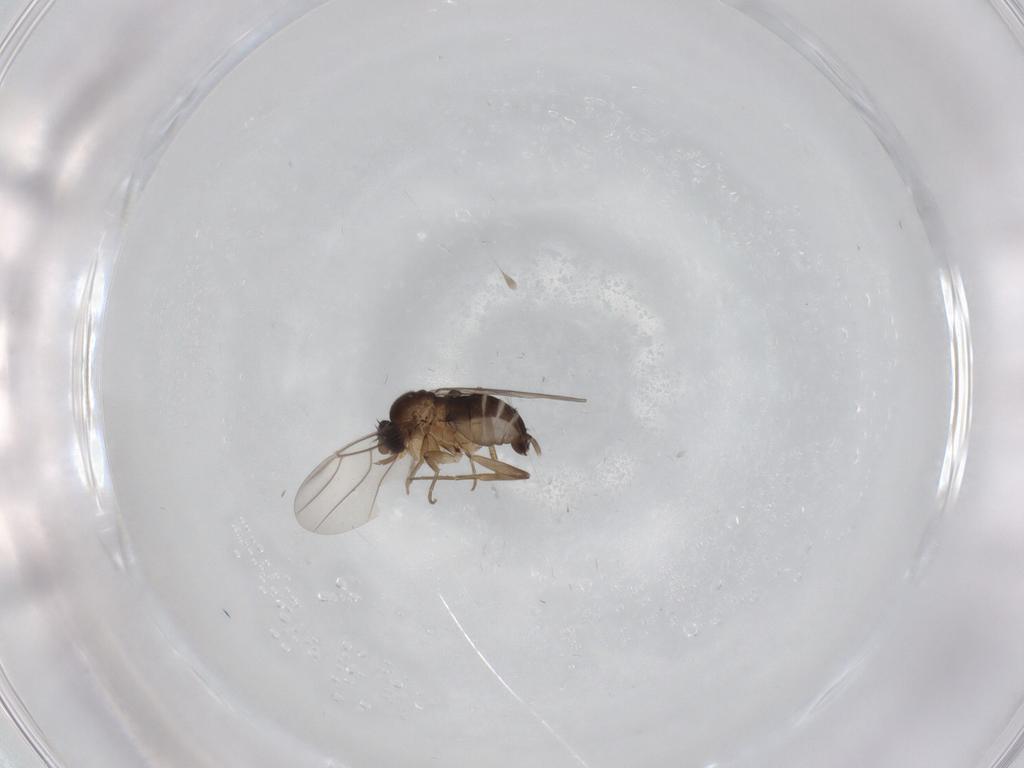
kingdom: Animalia
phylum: Arthropoda
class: Insecta
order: Diptera
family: Phoridae
